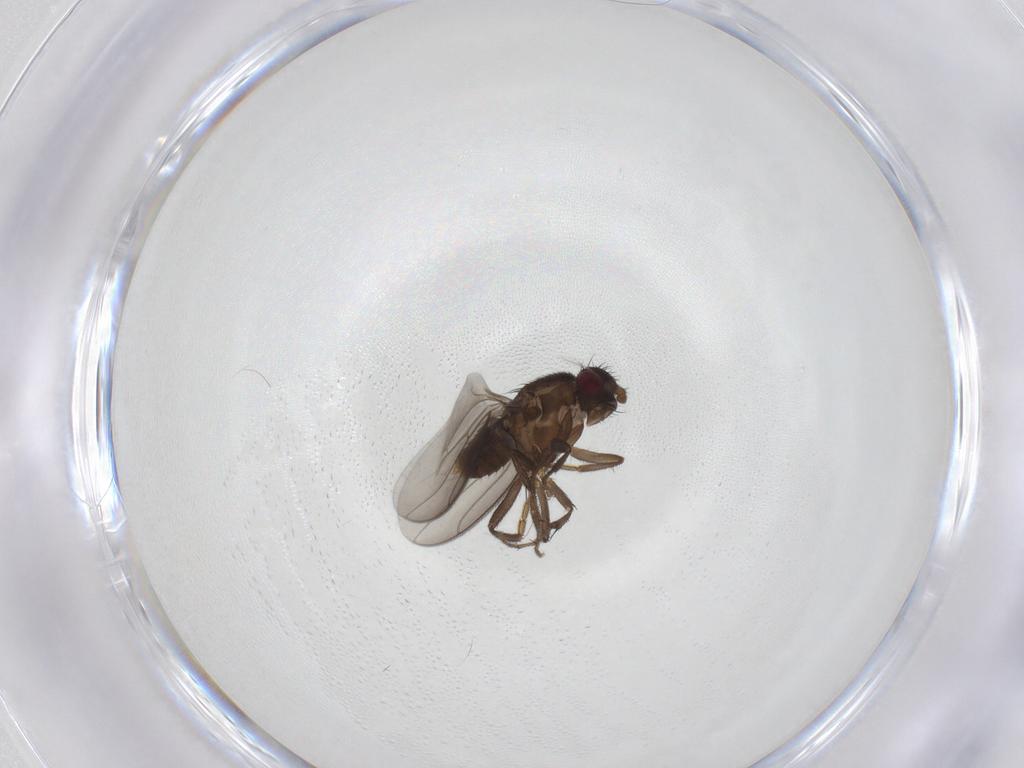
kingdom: Animalia
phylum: Arthropoda
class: Insecta
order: Diptera
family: Sphaeroceridae
